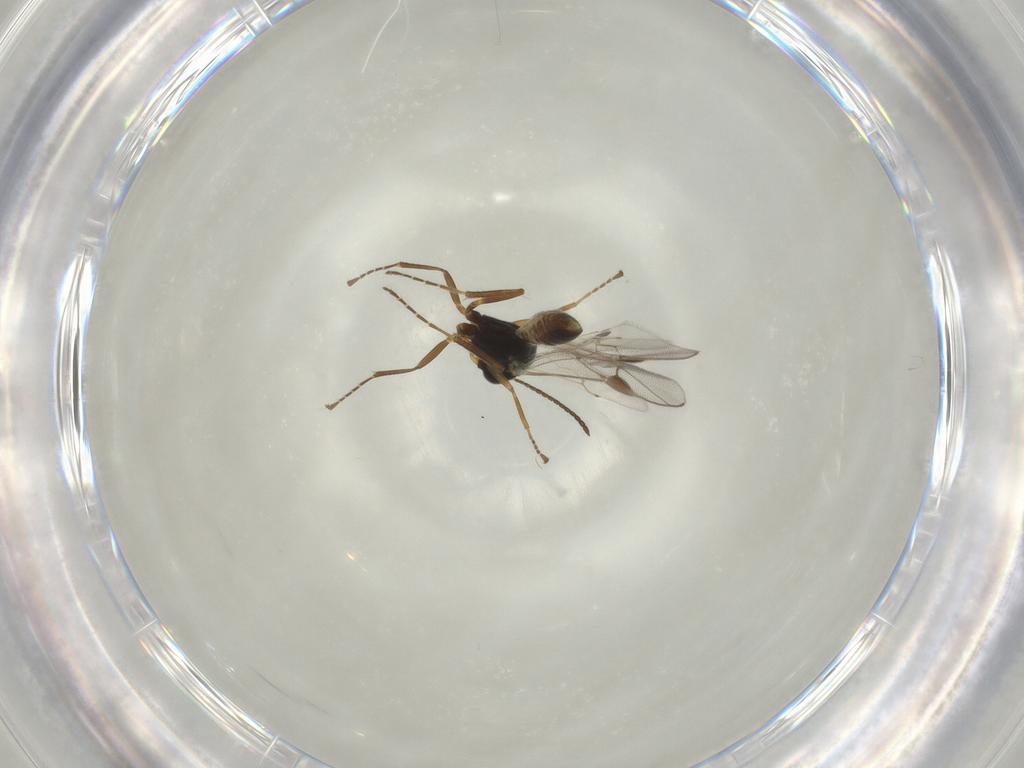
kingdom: Animalia
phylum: Arthropoda
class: Insecta
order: Hymenoptera
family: Ichneumonidae
